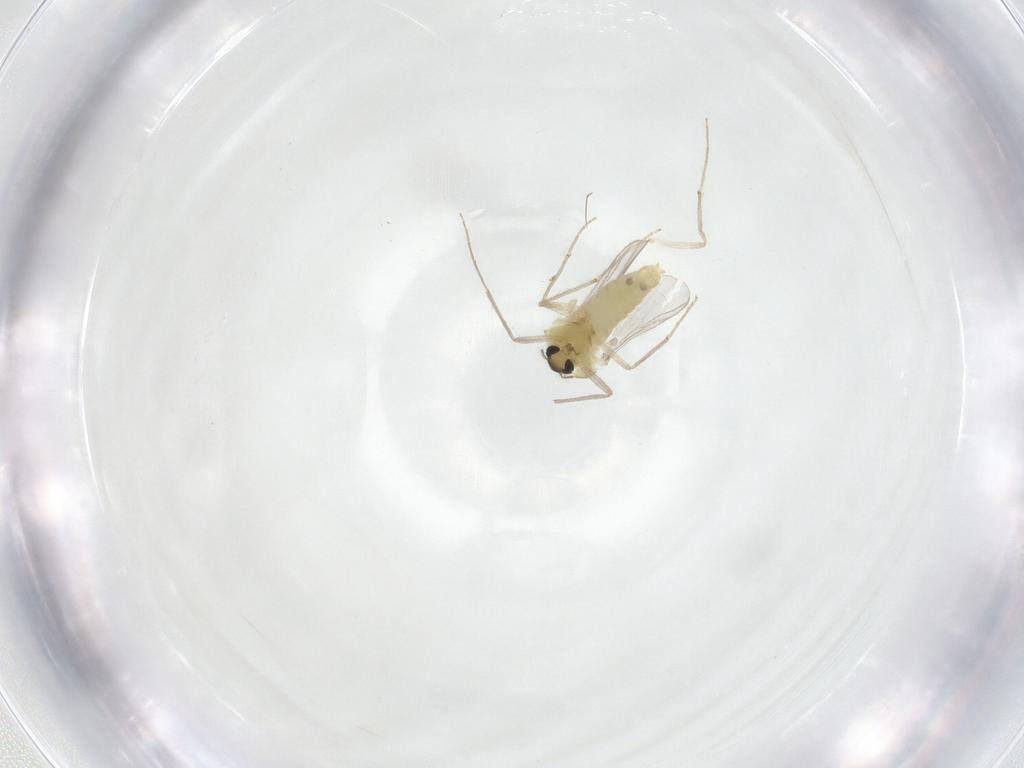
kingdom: Animalia
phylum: Arthropoda
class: Insecta
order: Diptera
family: Chironomidae
